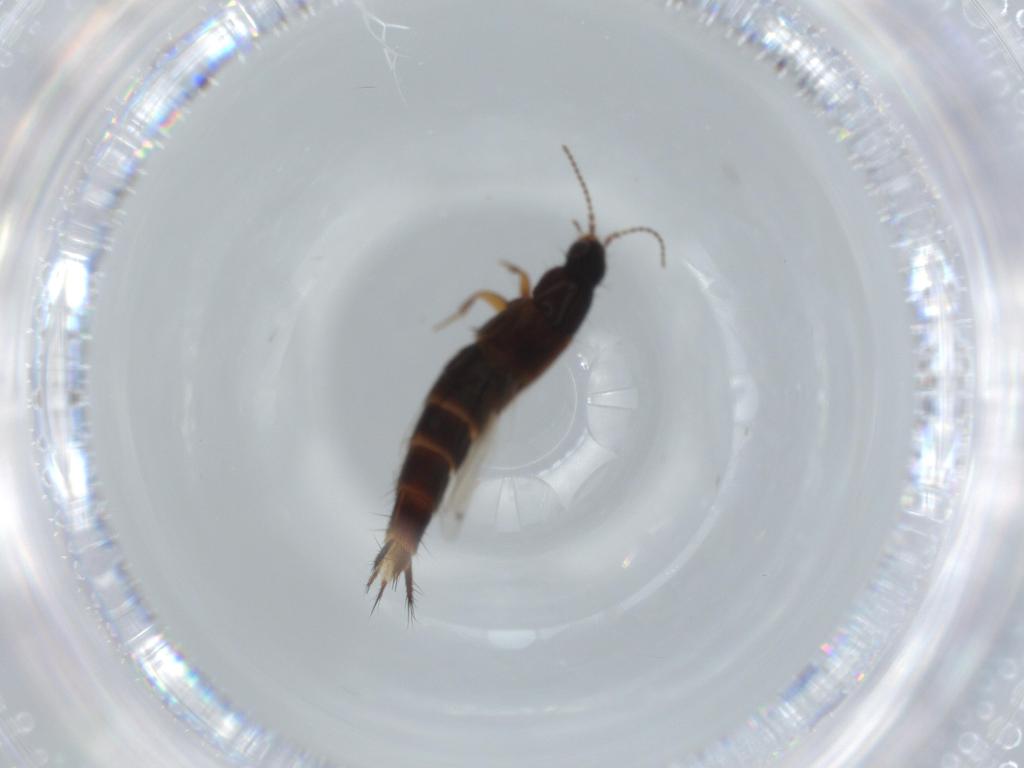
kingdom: Animalia
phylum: Arthropoda
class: Insecta
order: Coleoptera
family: Staphylinidae
